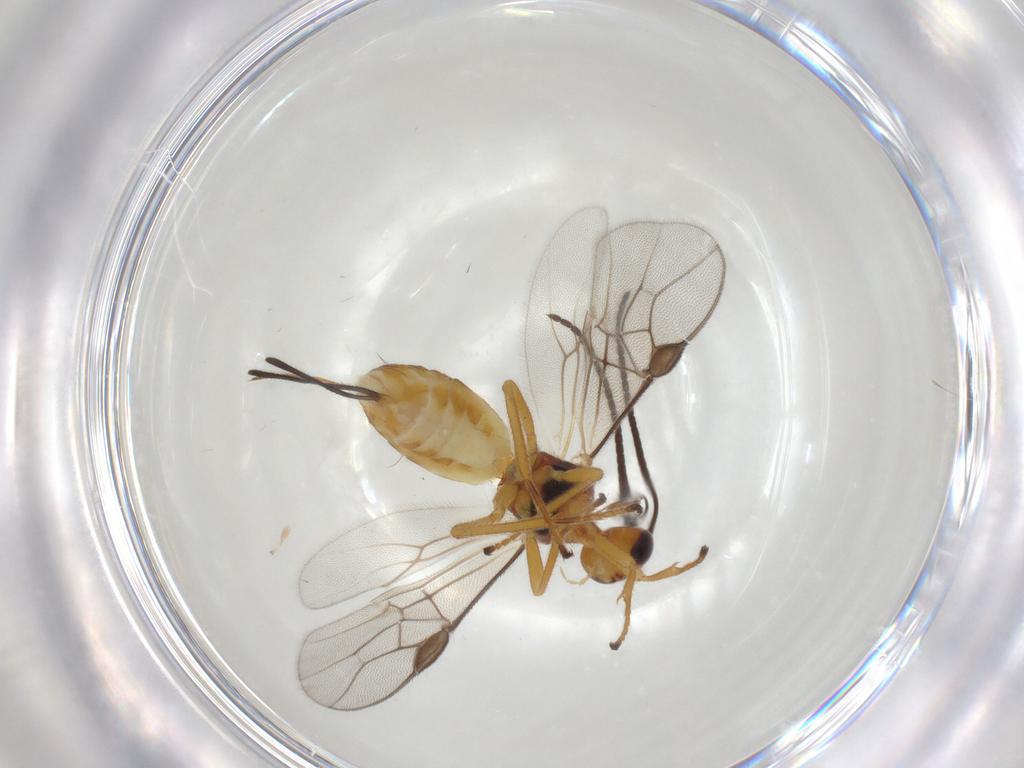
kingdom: Animalia
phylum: Arthropoda
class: Insecta
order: Hymenoptera
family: Braconidae
